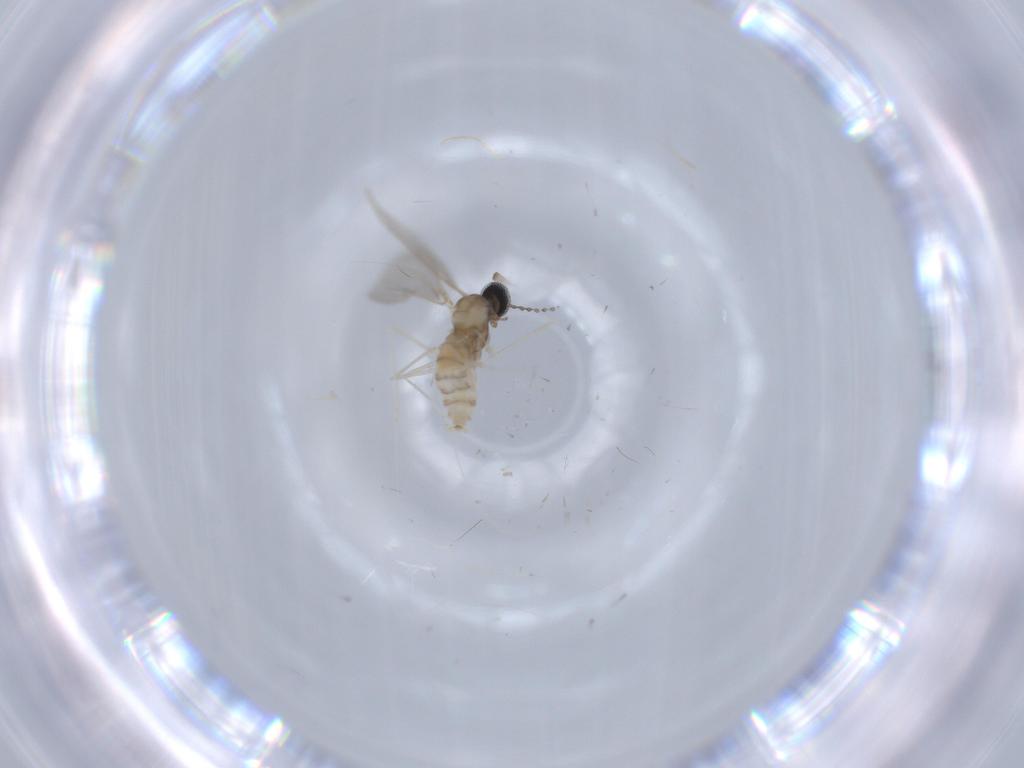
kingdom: Animalia
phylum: Arthropoda
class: Insecta
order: Diptera
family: Cecidomyiidae
